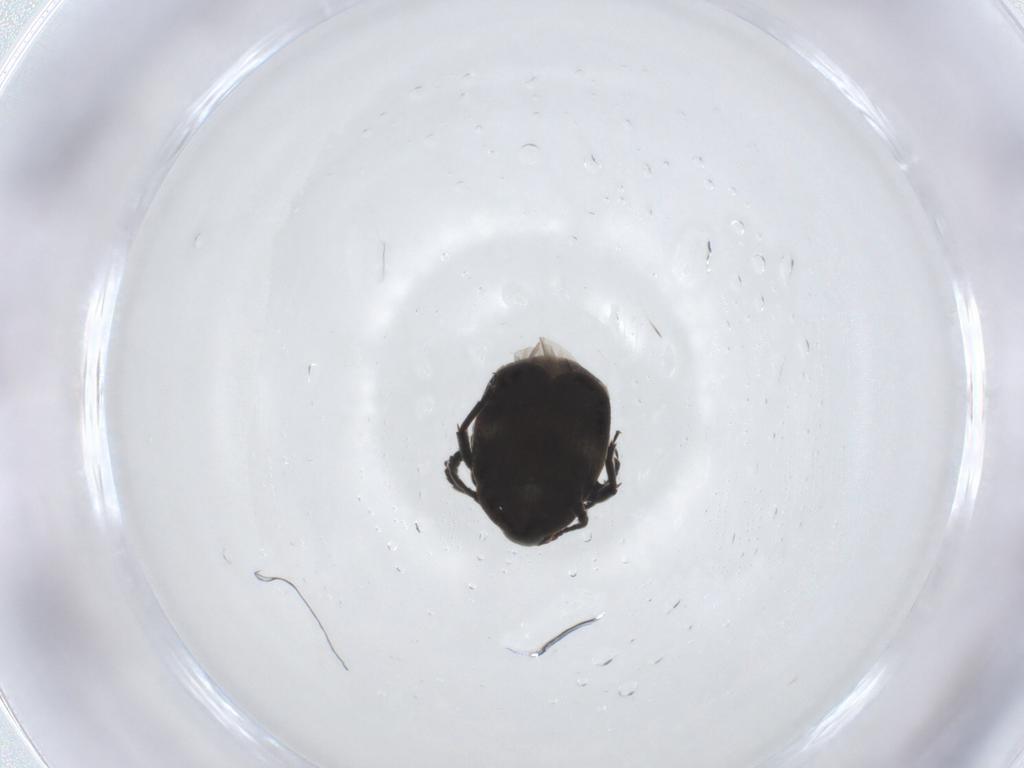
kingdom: Animalia
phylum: Arthropoda
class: Insecta
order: Coleoptera
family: Chrysomelidae
